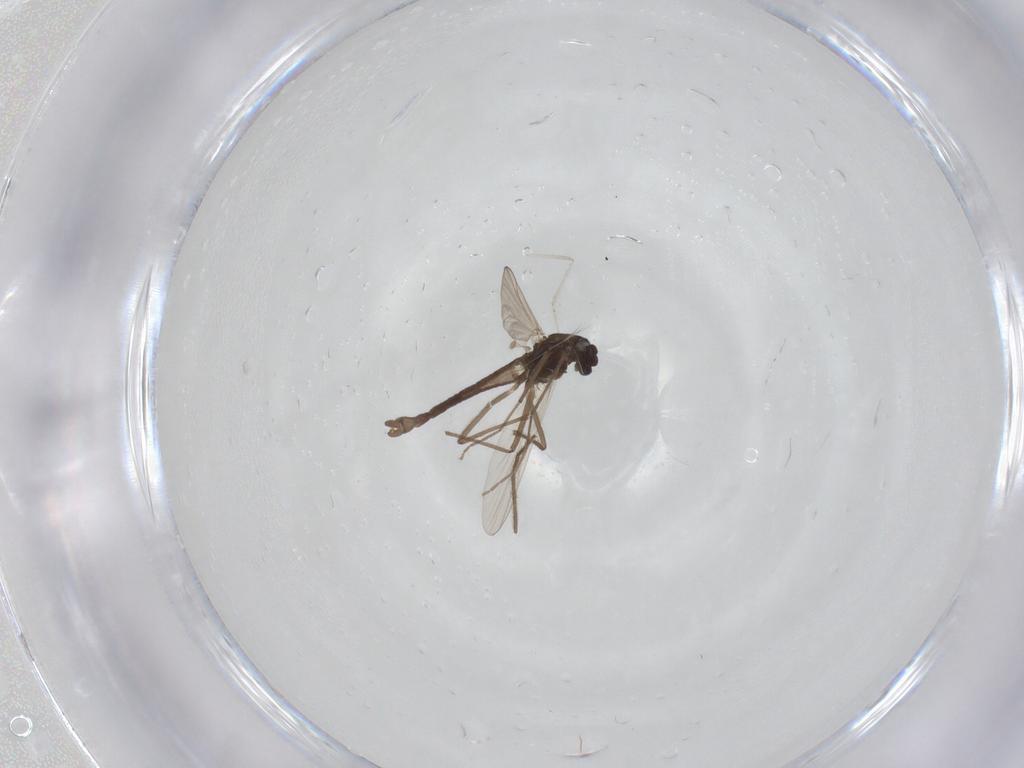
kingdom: Animalia
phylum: Arthropoda
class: Insecta
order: Diptera
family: Chironomidae
